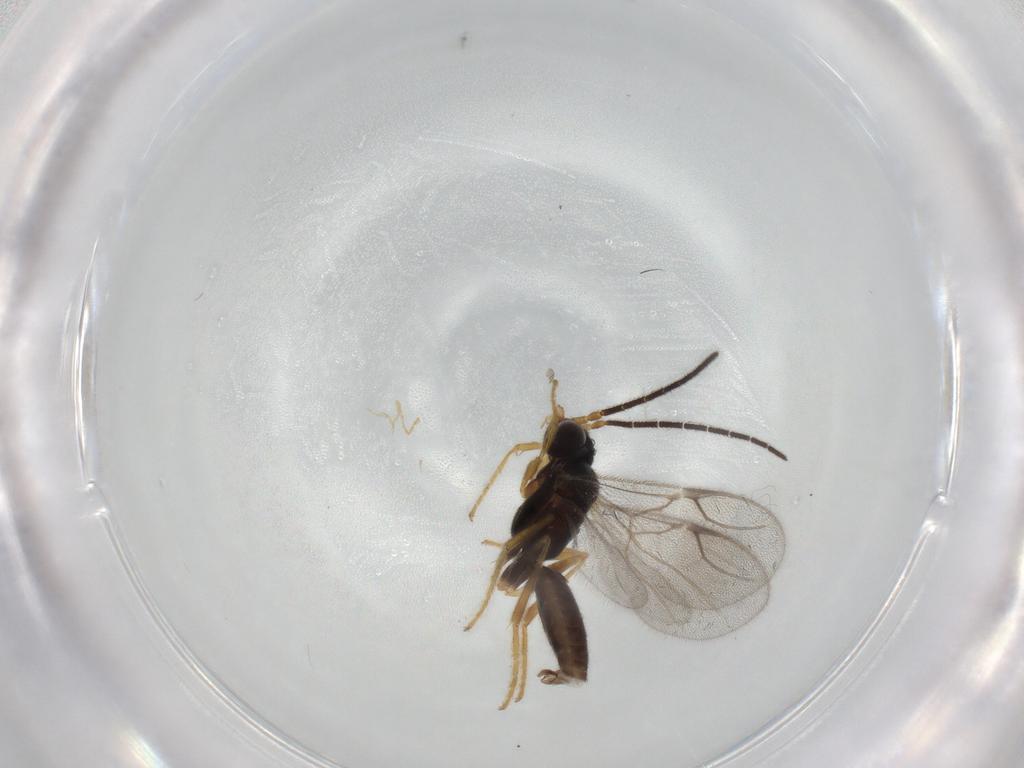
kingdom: Animalia
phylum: Arthropoda
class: Insecta
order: Hymenoptera
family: Dryinidae
